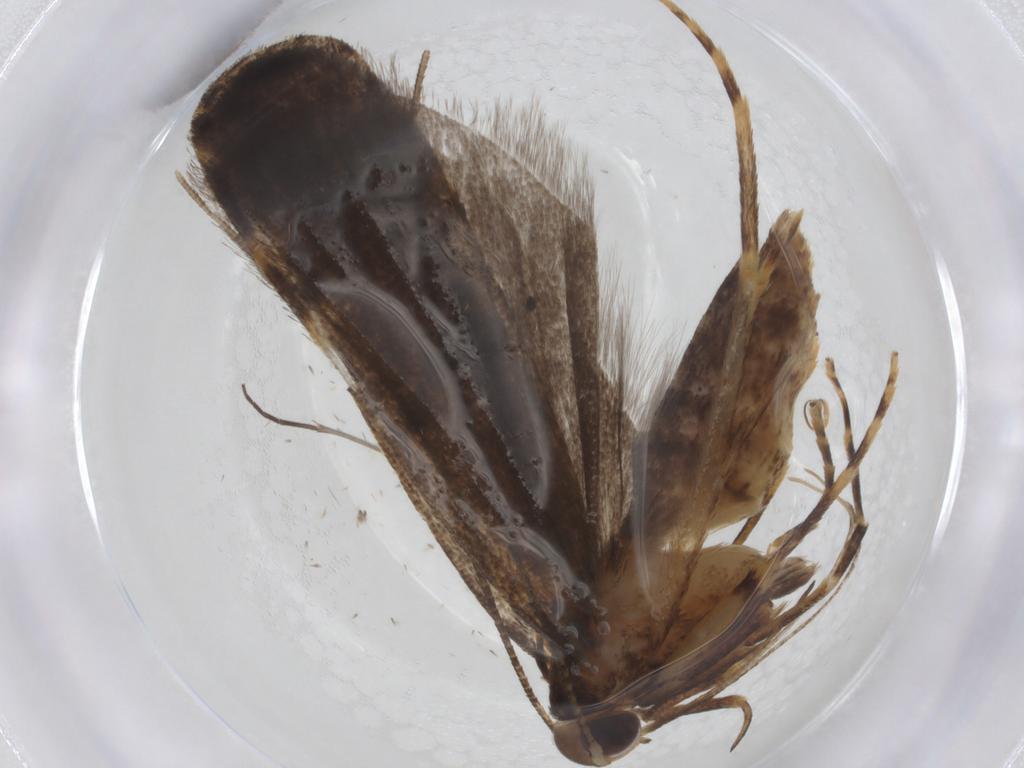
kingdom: Animalia
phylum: Arthropoda
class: Insecta
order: Lepidoptera
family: Autostichidae
